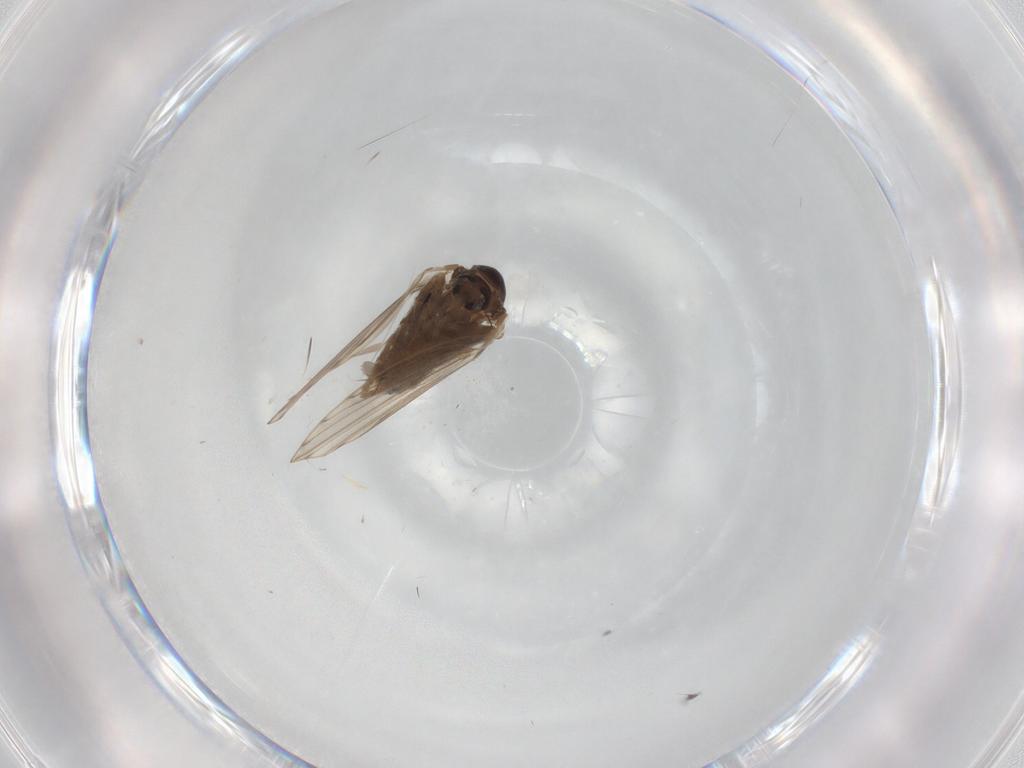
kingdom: Animalia
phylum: Arthropoda
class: Insecta
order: Diptera
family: Psychodidae
